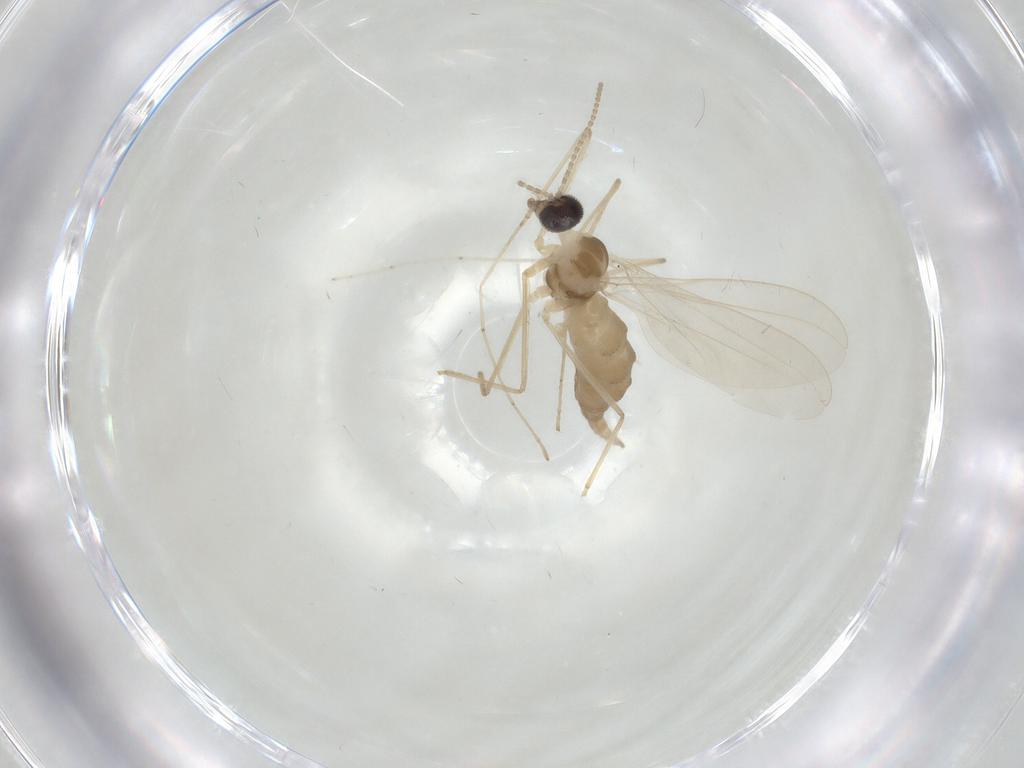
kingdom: Animalia
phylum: Arthropoda
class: Insecta
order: Diptera
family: Cecidomyiidae
